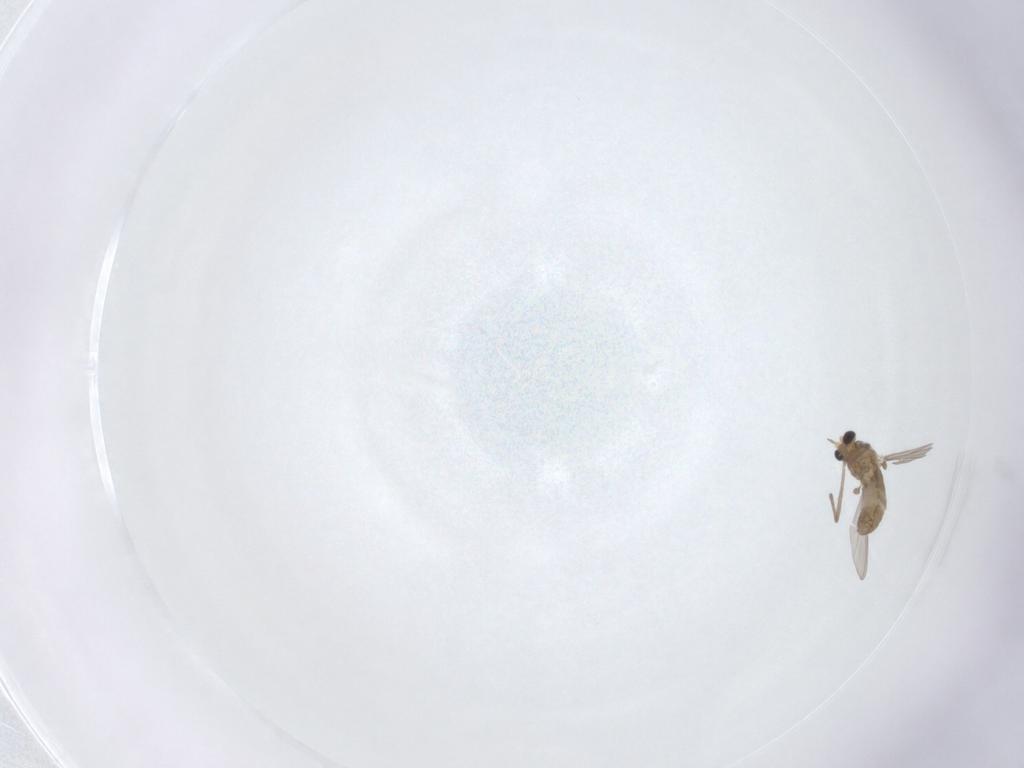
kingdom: Animalia
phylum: Arthropoda
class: Insecta
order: Diptera
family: Chironomidae
